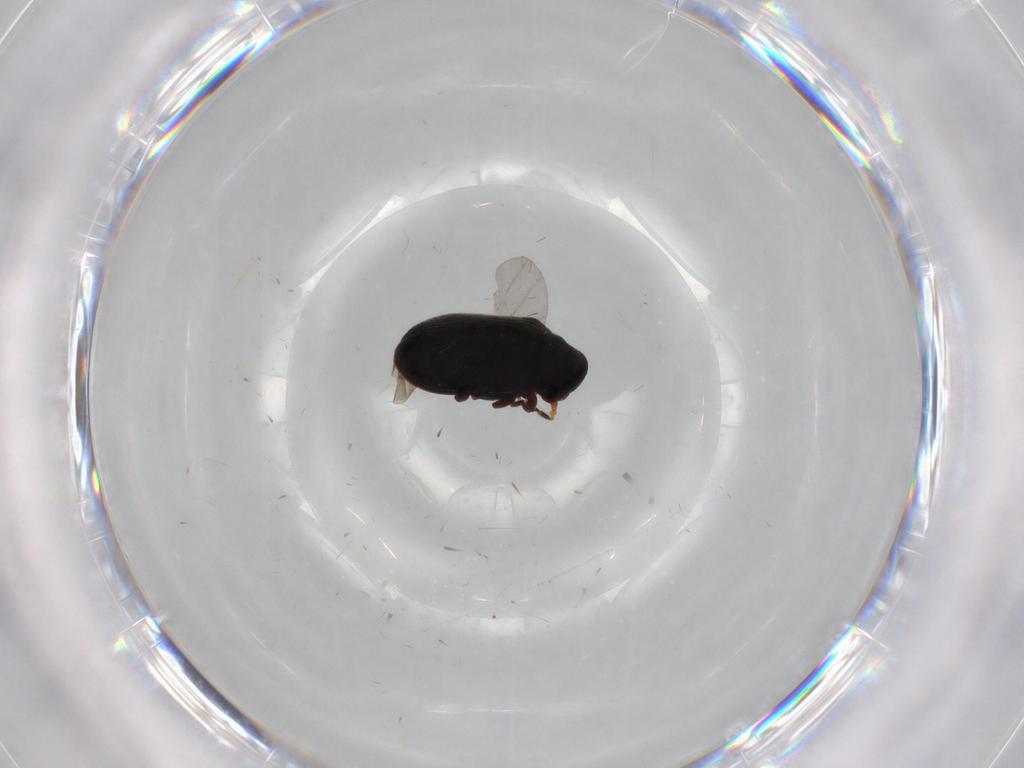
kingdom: Animalia
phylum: Arthropoda
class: Insecta
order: Coleoptera
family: Ptinidae
